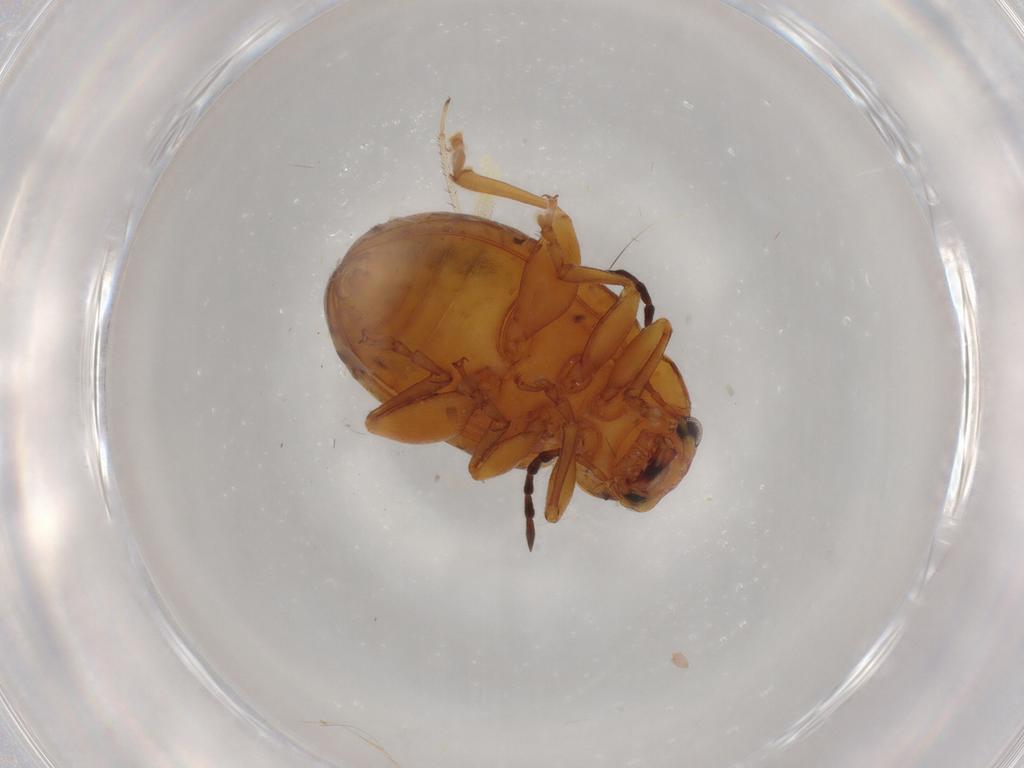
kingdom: Animalia
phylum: Arthropoda
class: Insecta
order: Coleoptera
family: Chrysomelidae
